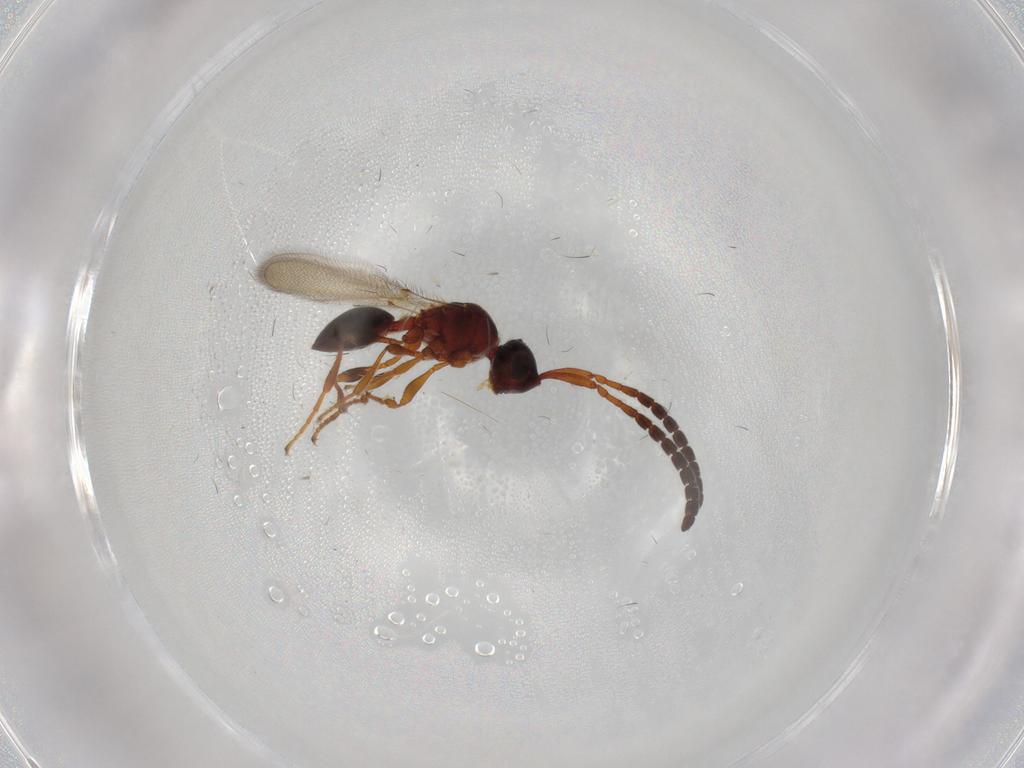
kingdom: Animalia
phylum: Arthropoda
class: Insecta
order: Hymenoptera
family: Diapriidae
